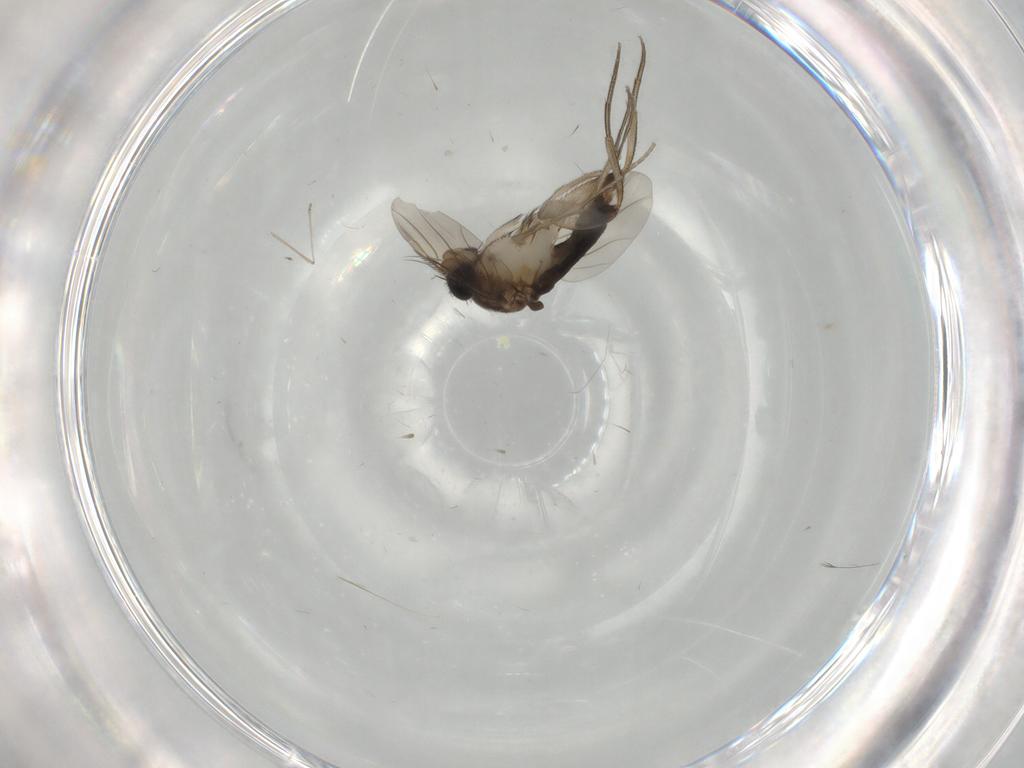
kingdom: Animalia
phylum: Arthropoda
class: Insecta
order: Diptera
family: Phoridae
